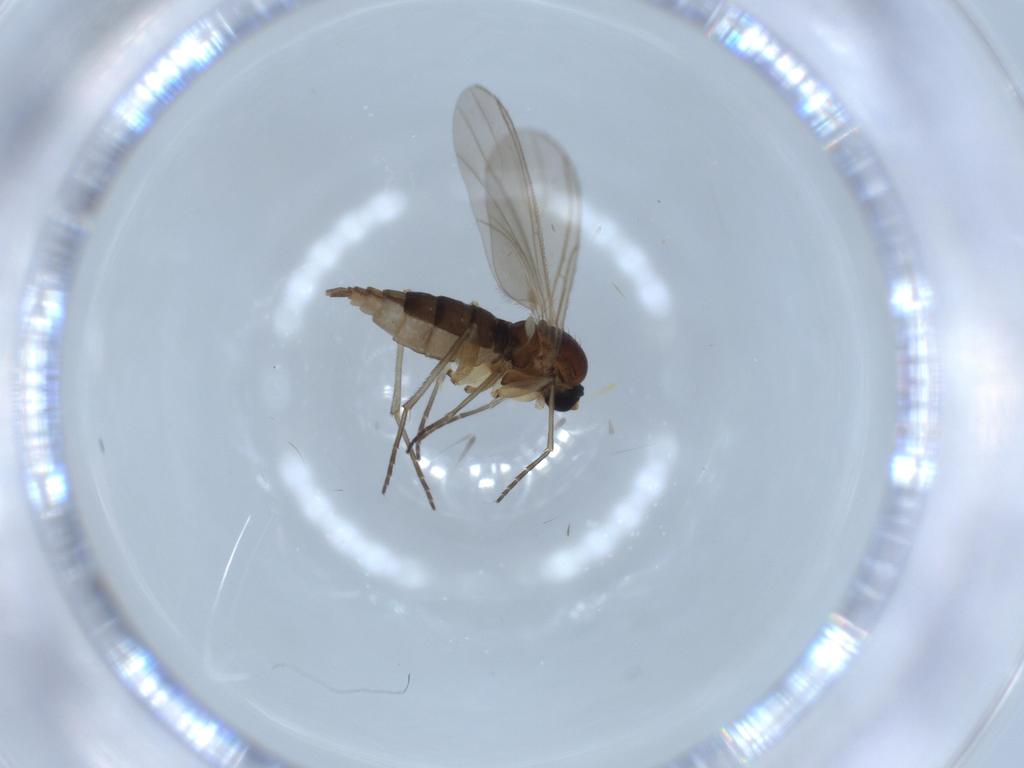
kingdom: Animalia
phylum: Arthropoda
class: Insecta
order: Diptera
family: Sciaridae
